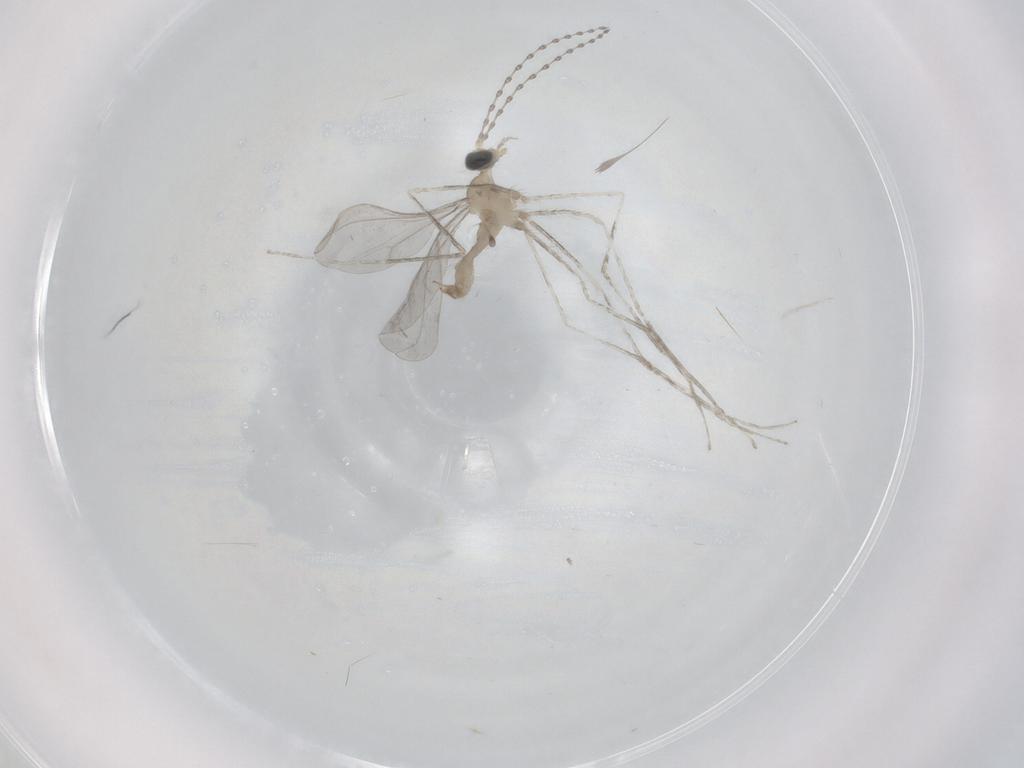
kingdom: Animalia
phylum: Arthropoda
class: Insecta
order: Diptera
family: Cecidomyiidae
